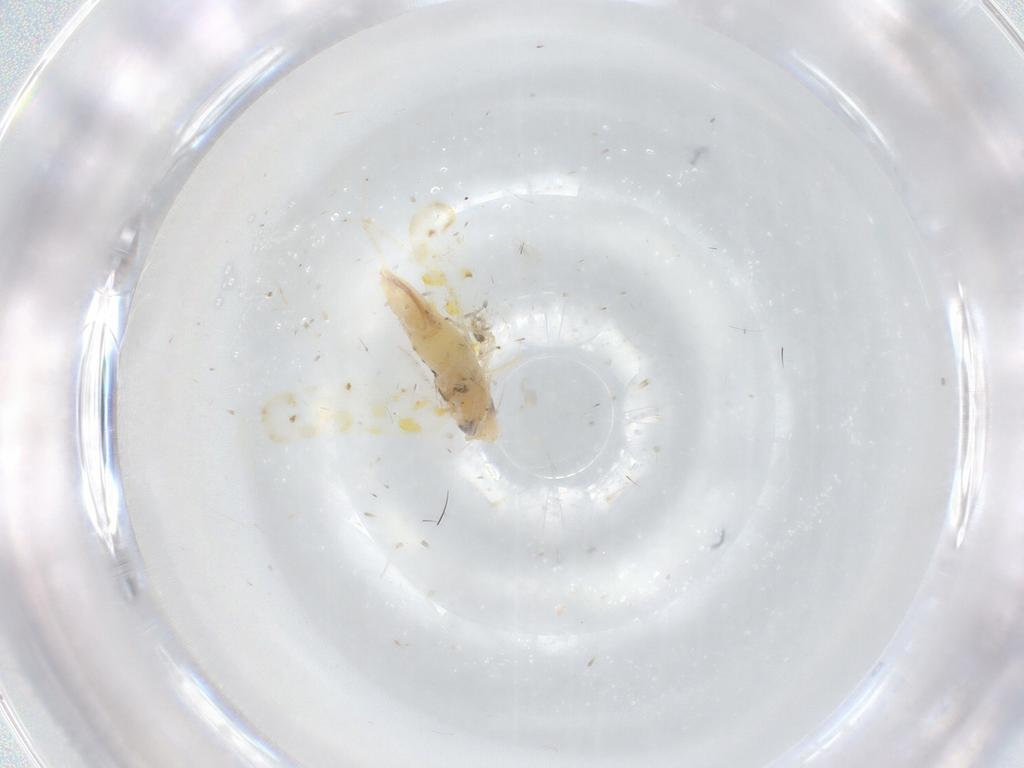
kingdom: Animalia
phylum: Arthropoda
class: Insecta
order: Hemiptera
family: Cicadellidae
